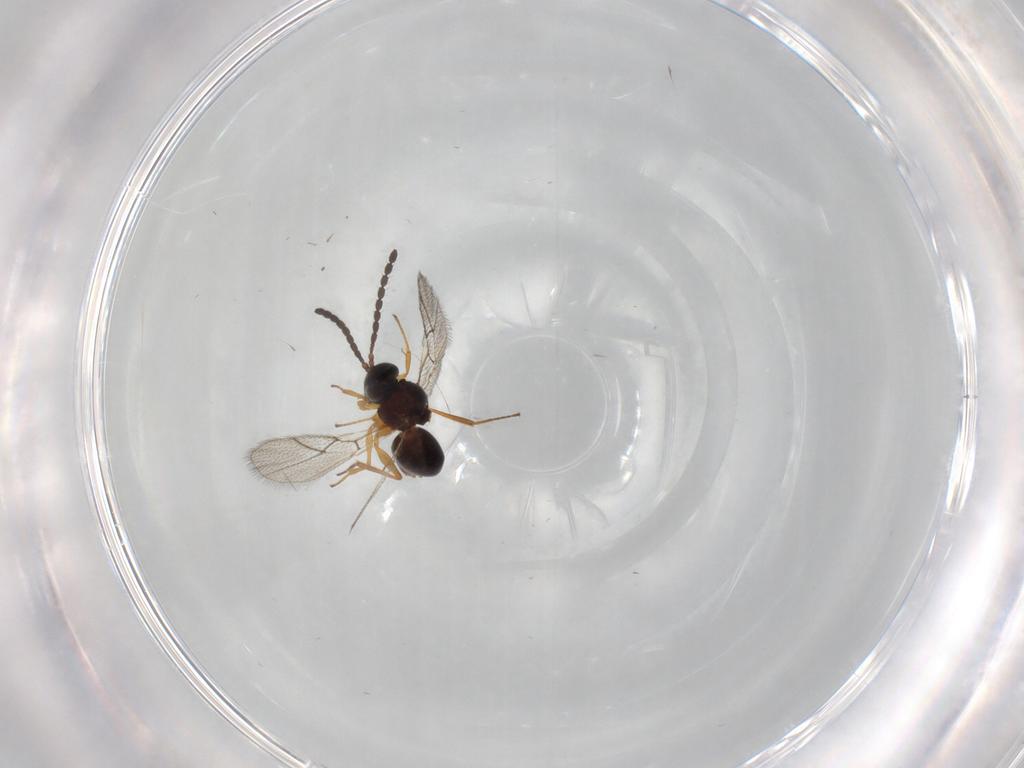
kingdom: Animalia
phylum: Arthropoda
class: Insecta
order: Hymenoptera
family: Figitidae
